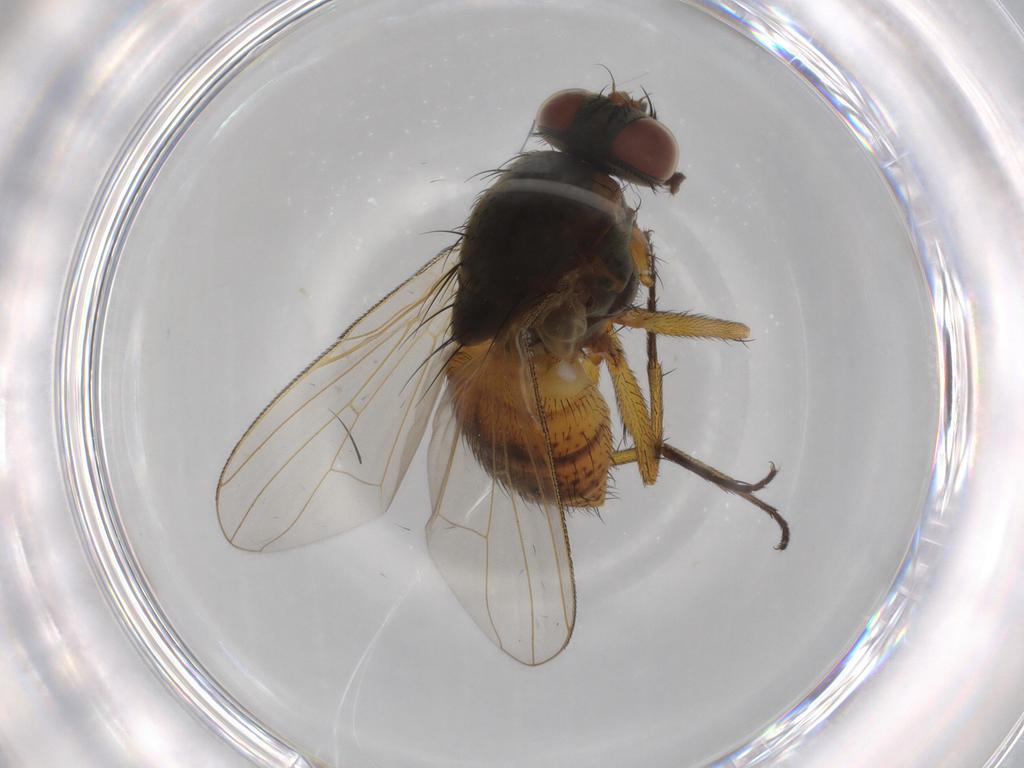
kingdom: Animalia
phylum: Arthropoda
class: Insecta
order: Diptera
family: Muscidae
